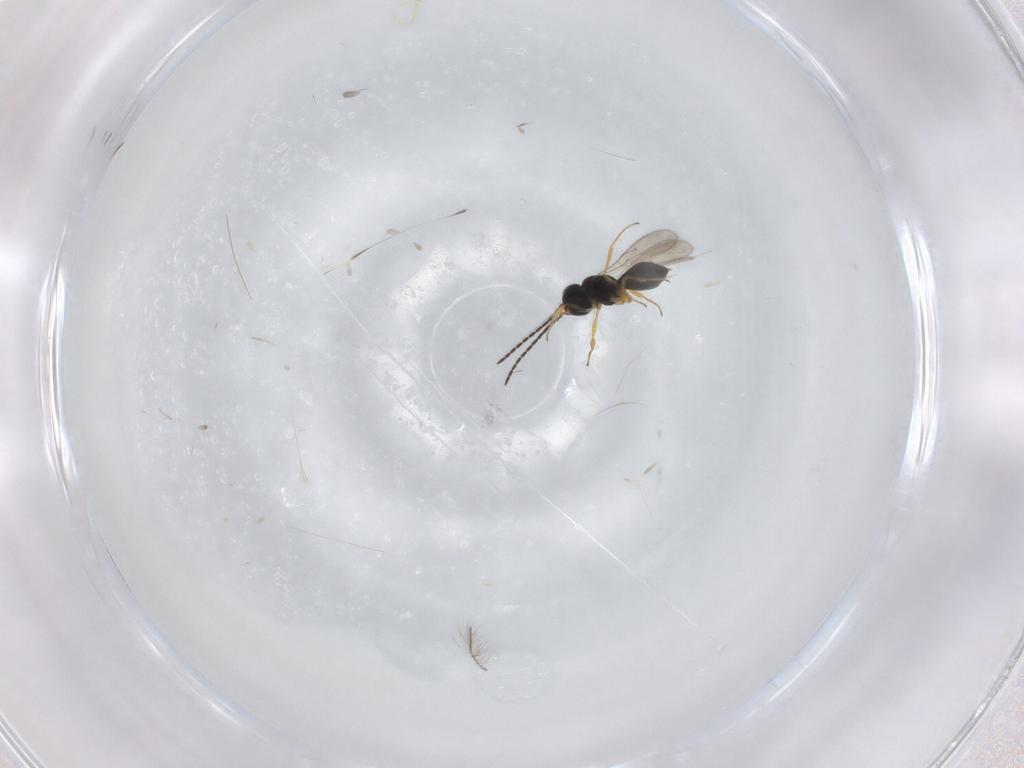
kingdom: Animalia
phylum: Arthropoda
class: Insecta
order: Hymenoptera
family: Scelionidae
